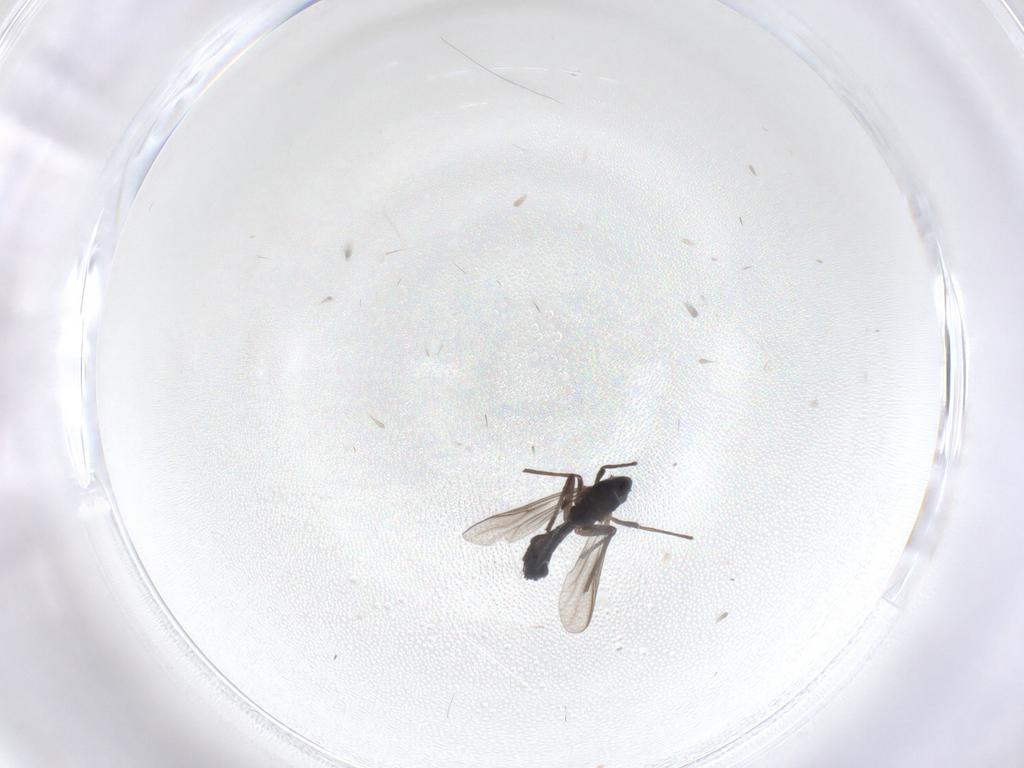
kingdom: Animalia
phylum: Arthropoda
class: Insecta
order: Diptera
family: Chironomidae
